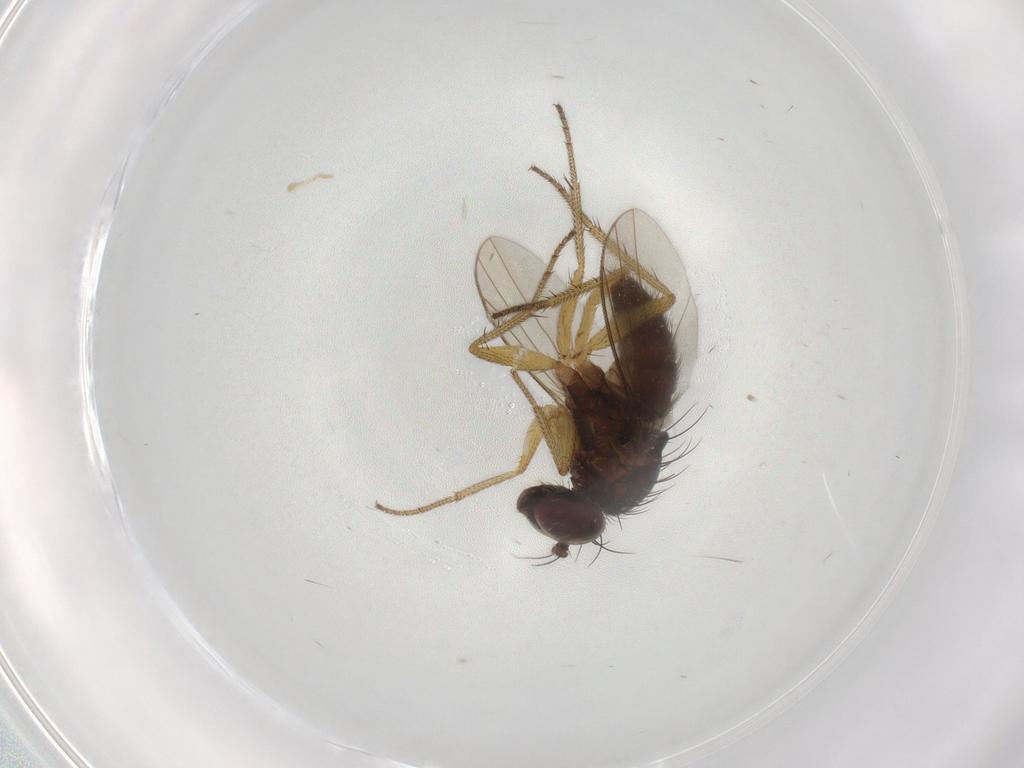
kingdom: Animalia
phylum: Arthropoda
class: Insecta
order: Diptera
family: Dolichopodidae
